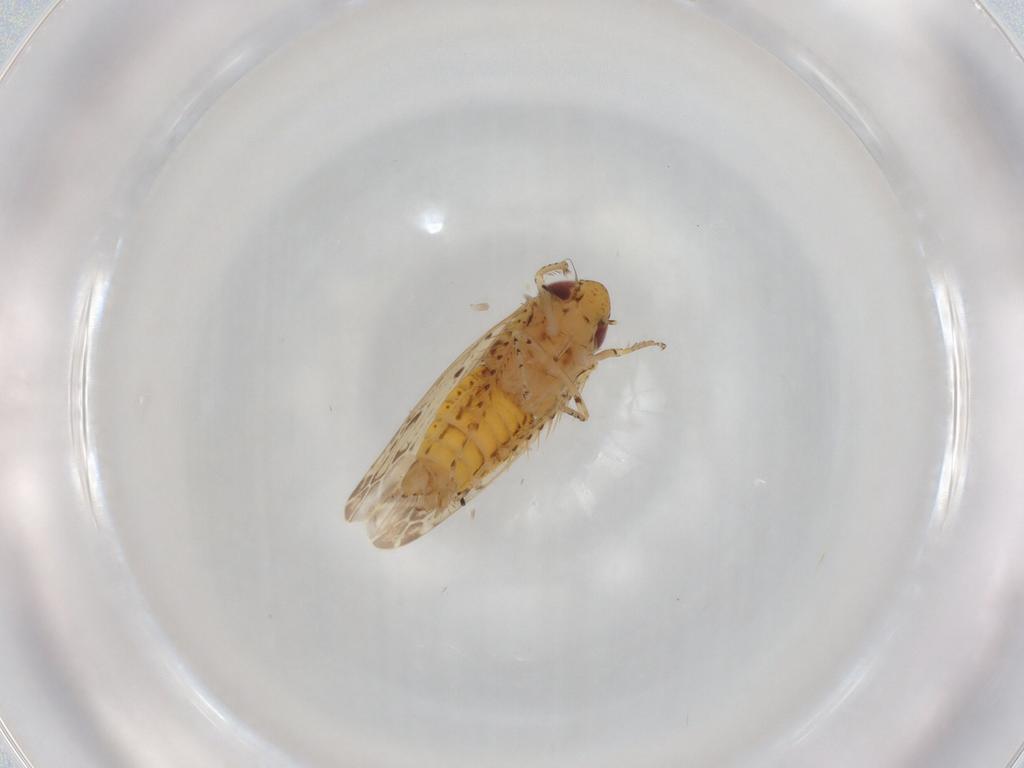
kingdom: Animalia
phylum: Arthropoda
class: Insecta
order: Hemiptera
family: Cicadellidae
